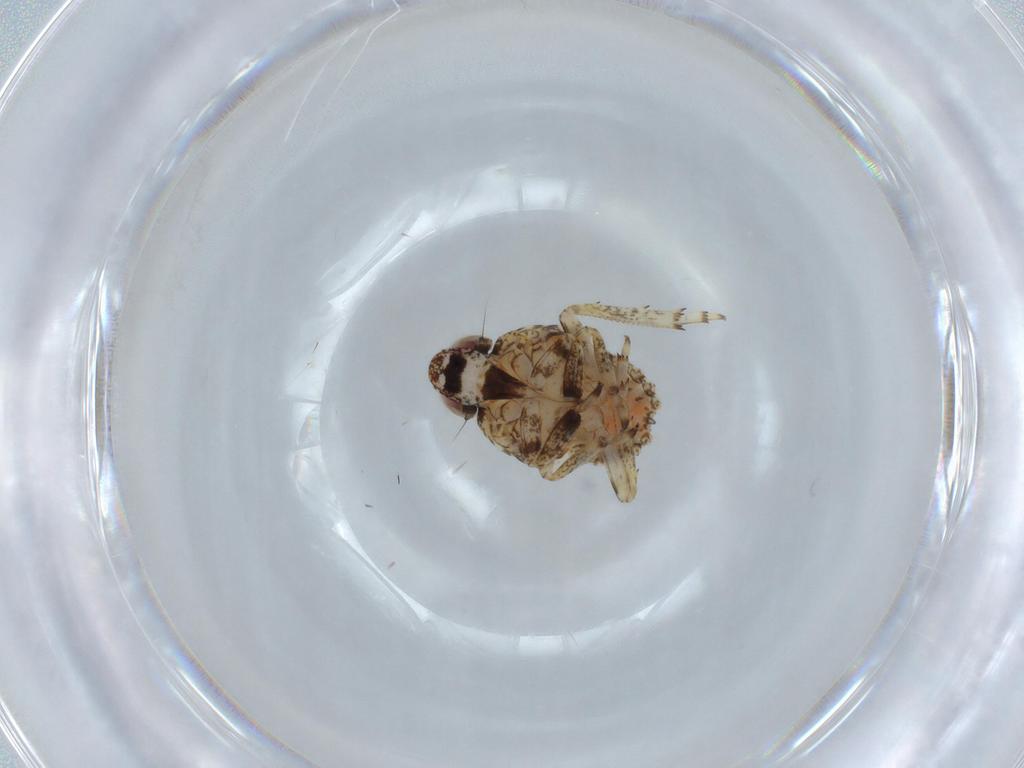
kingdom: Animalia
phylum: Arthropoda
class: Insecta
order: Hemiptera
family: Issidae
